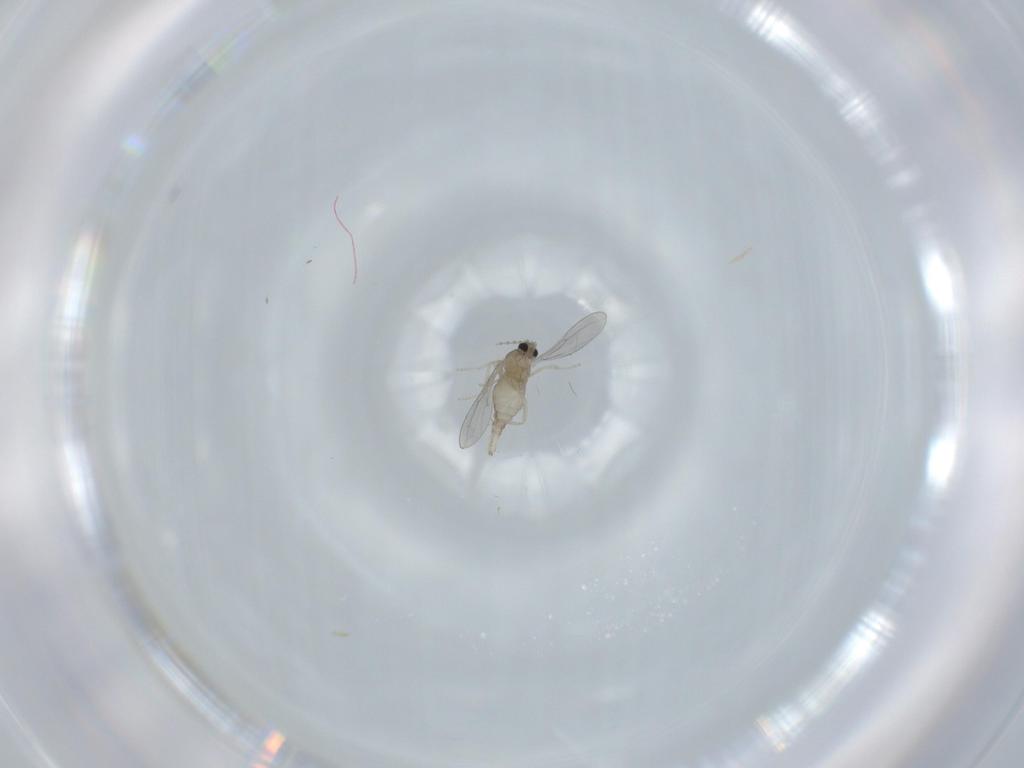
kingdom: Animalia
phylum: Arthropoda
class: Insecta
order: Diptera
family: Cecidomyiidae
